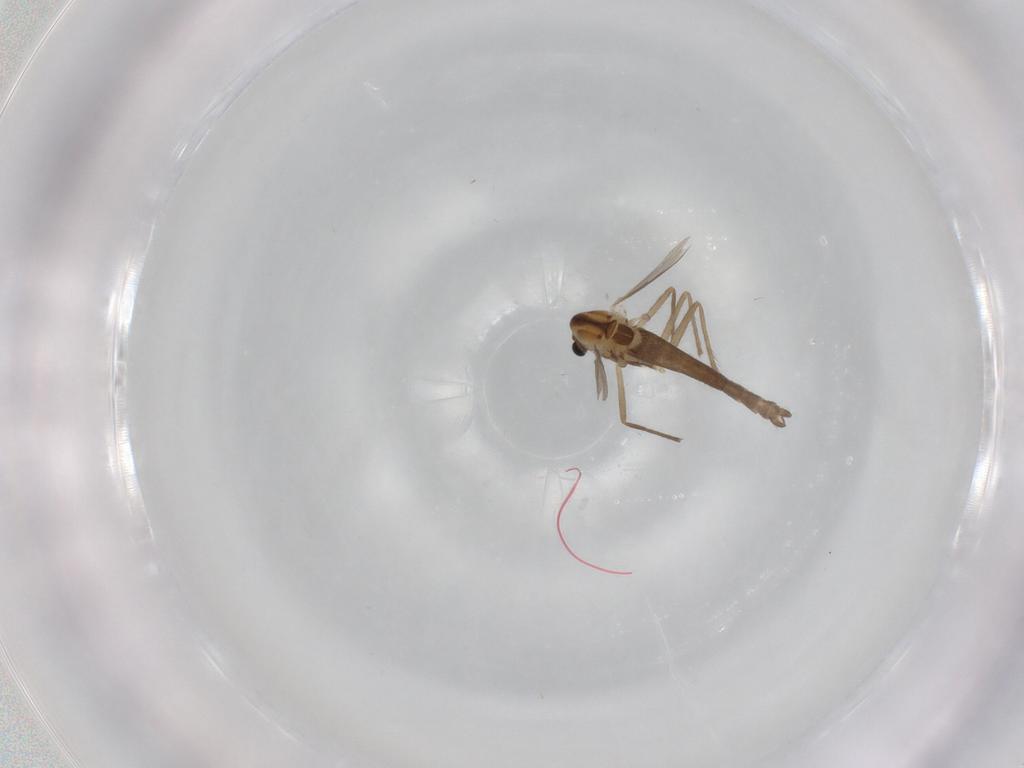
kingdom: Animalia
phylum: Arthropoda
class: Insecta
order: Diptera
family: Chironomidae
